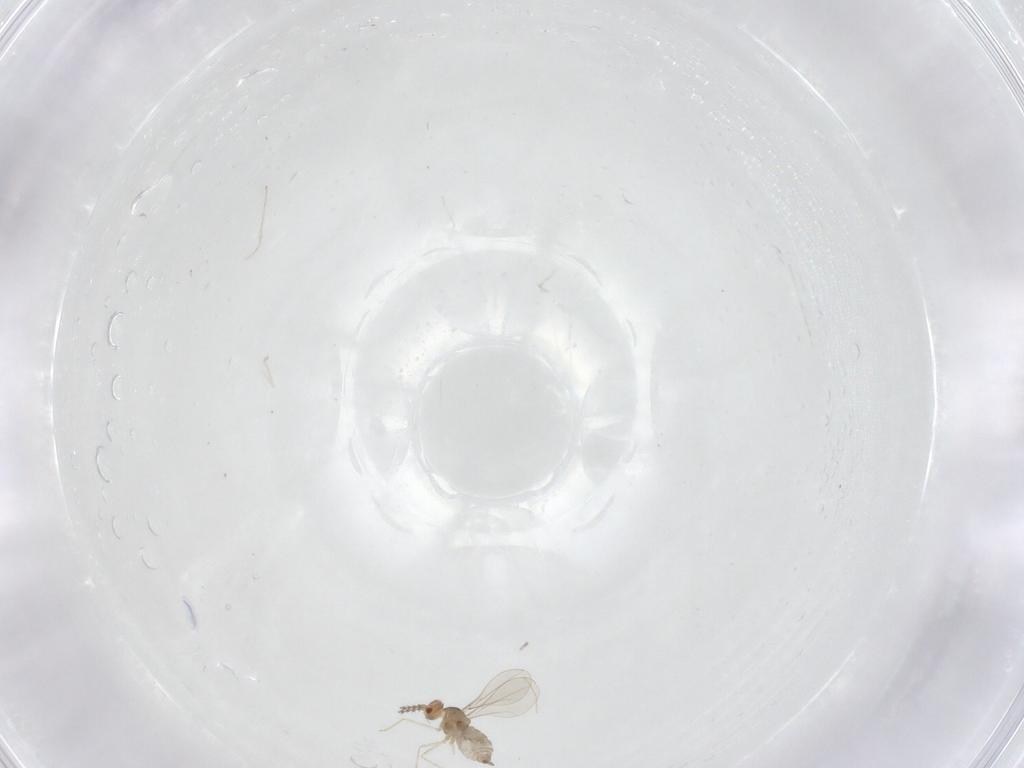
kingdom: Animalia
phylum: Arthropoda
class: Insecta
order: Diptera
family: Cecidomyiidae
